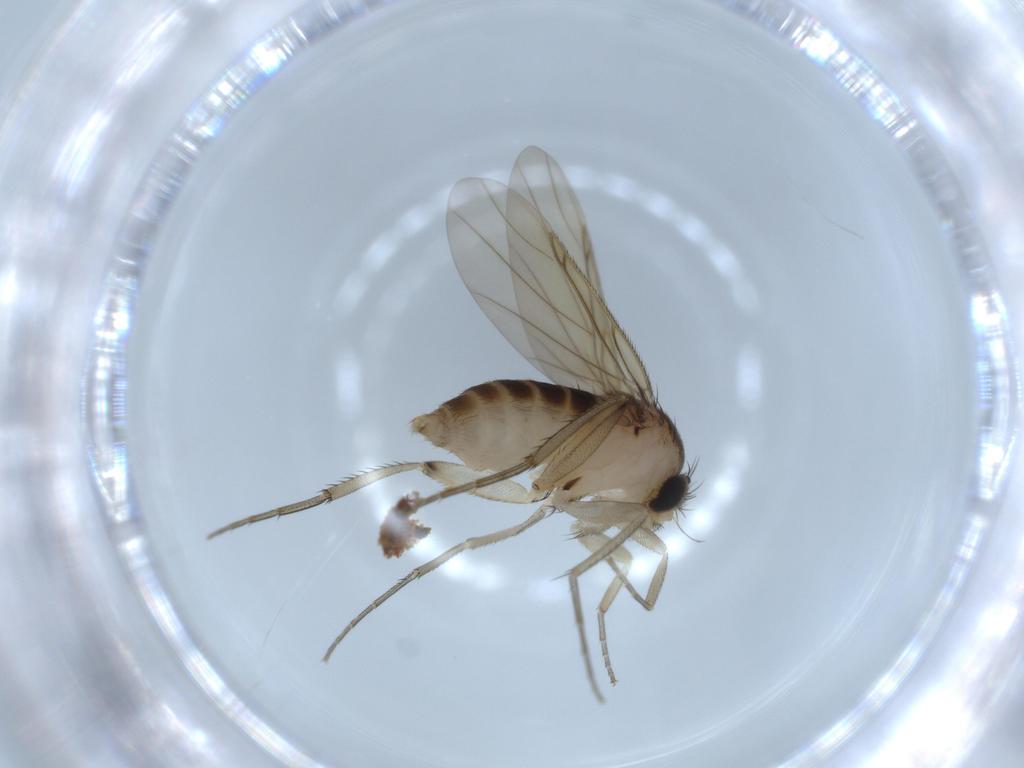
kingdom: Animalia
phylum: Arthropoda
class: Insecta
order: Diptera
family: Phoridae
